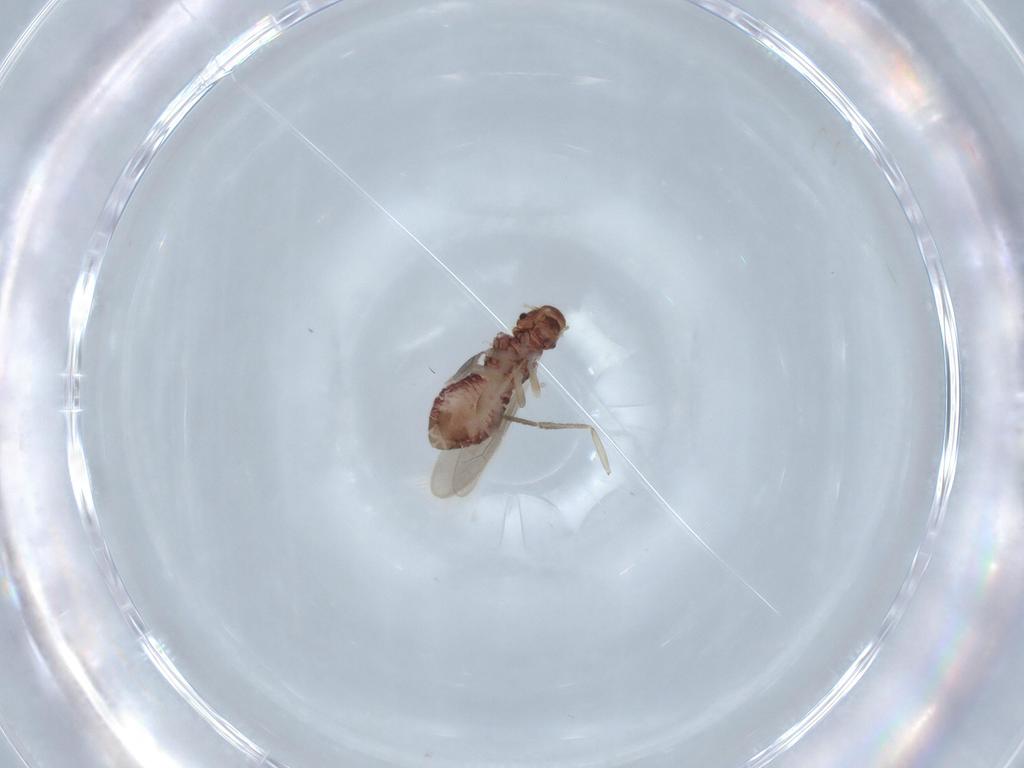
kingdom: Animalia
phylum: Arthropoda
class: Insecta
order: Psocodea
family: Archipsocidae
